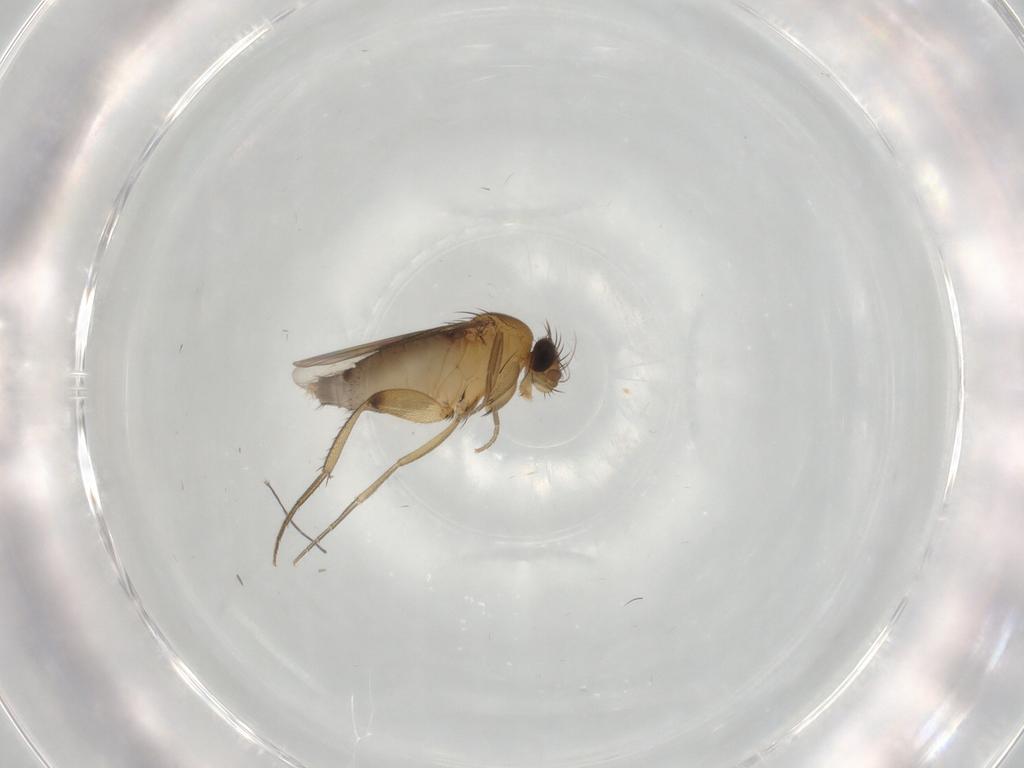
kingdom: Animalia
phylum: Arthropoda
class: Insecta
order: Diptera
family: Phoridae
